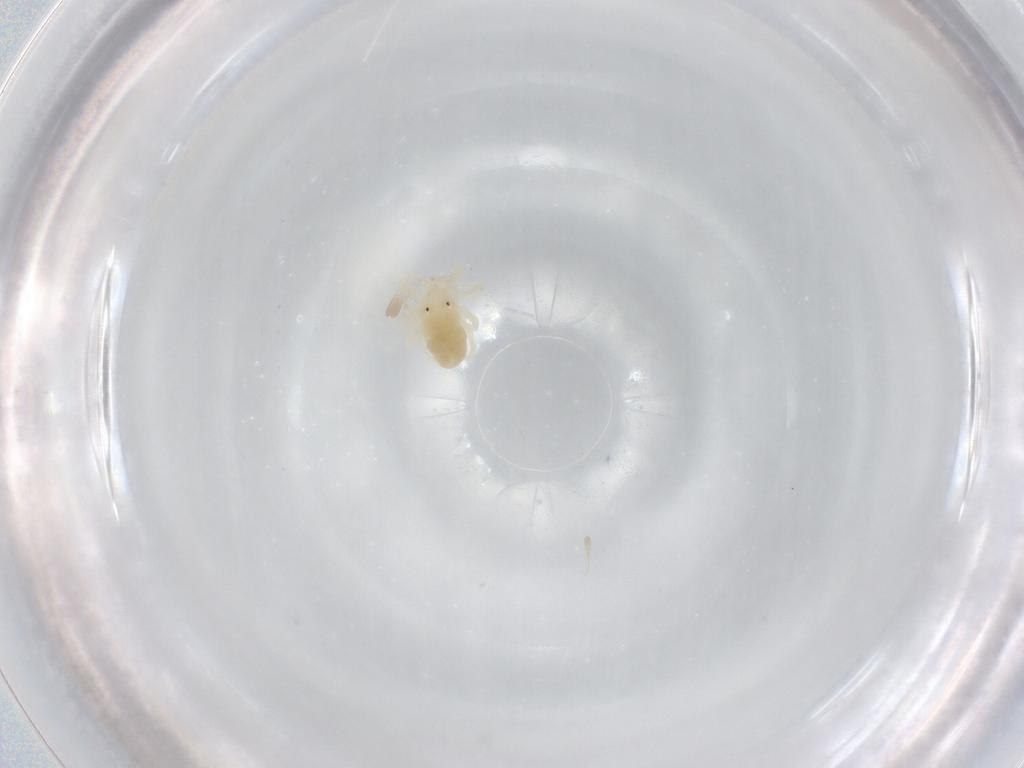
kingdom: Animalia
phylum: Arthropoda
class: Arachnida
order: Trombidiformes
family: Anystidae
